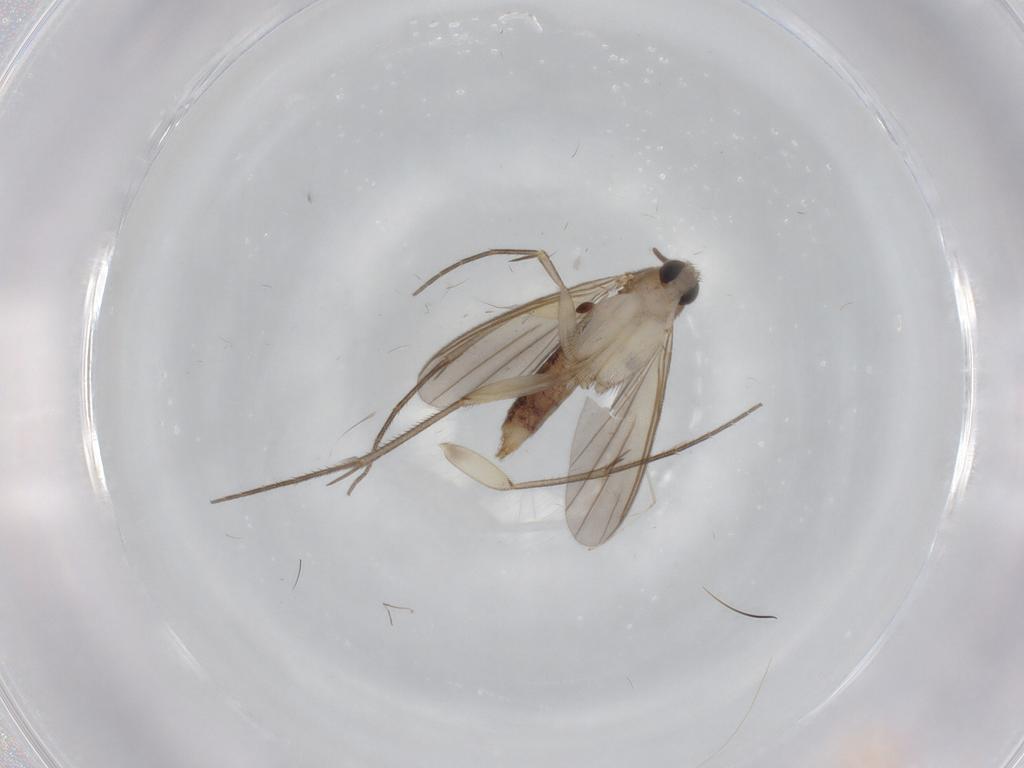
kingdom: Animalia
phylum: Arthropoda
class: Insecta
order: Diptera
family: Mycetophilidae
